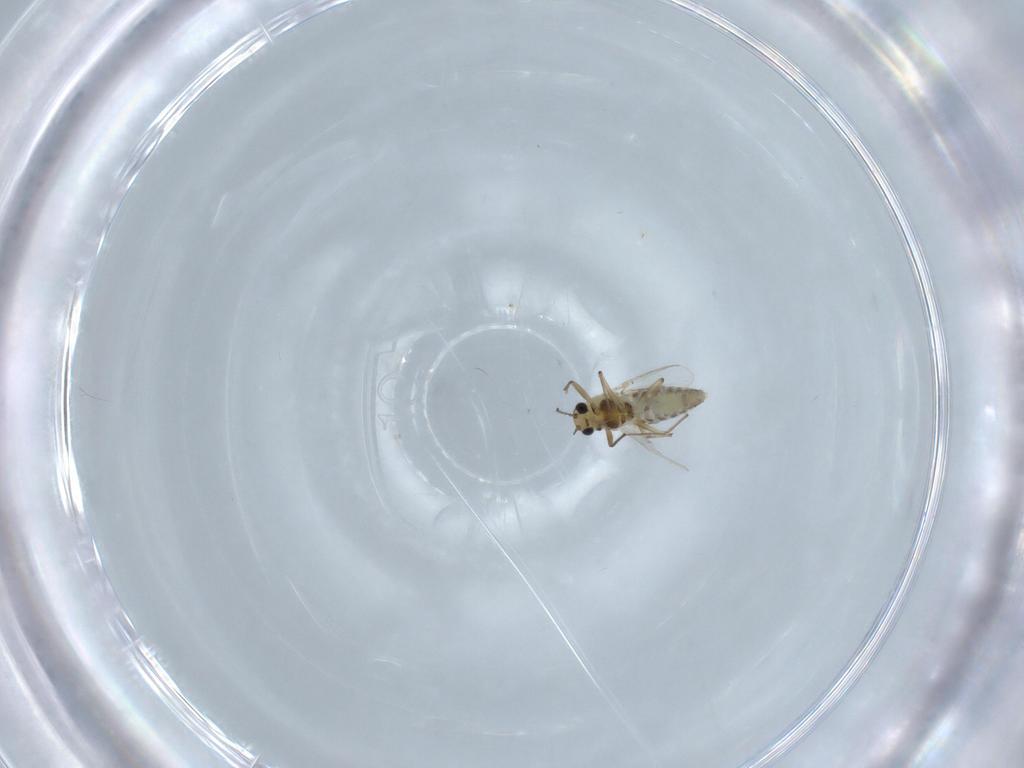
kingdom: Animalia
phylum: Arthropoda
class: Insecta
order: Diptera
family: Chironomidae
